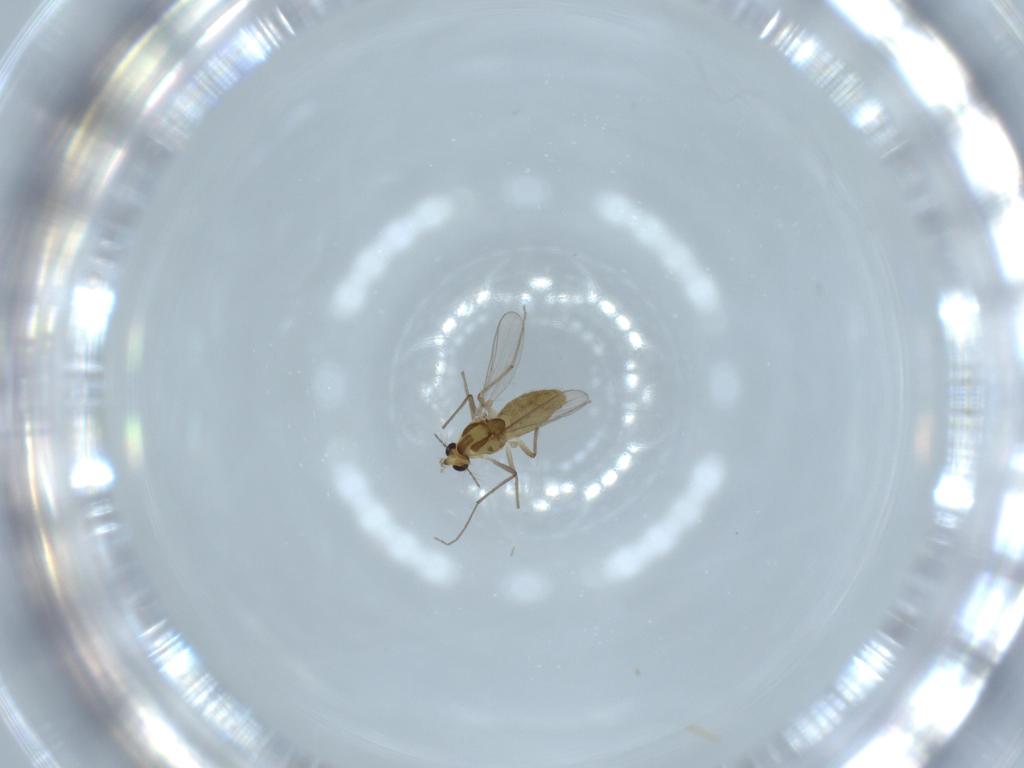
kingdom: Animalia
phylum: Arthropoda
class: Insecta
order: Diptera
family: Chironomidae
